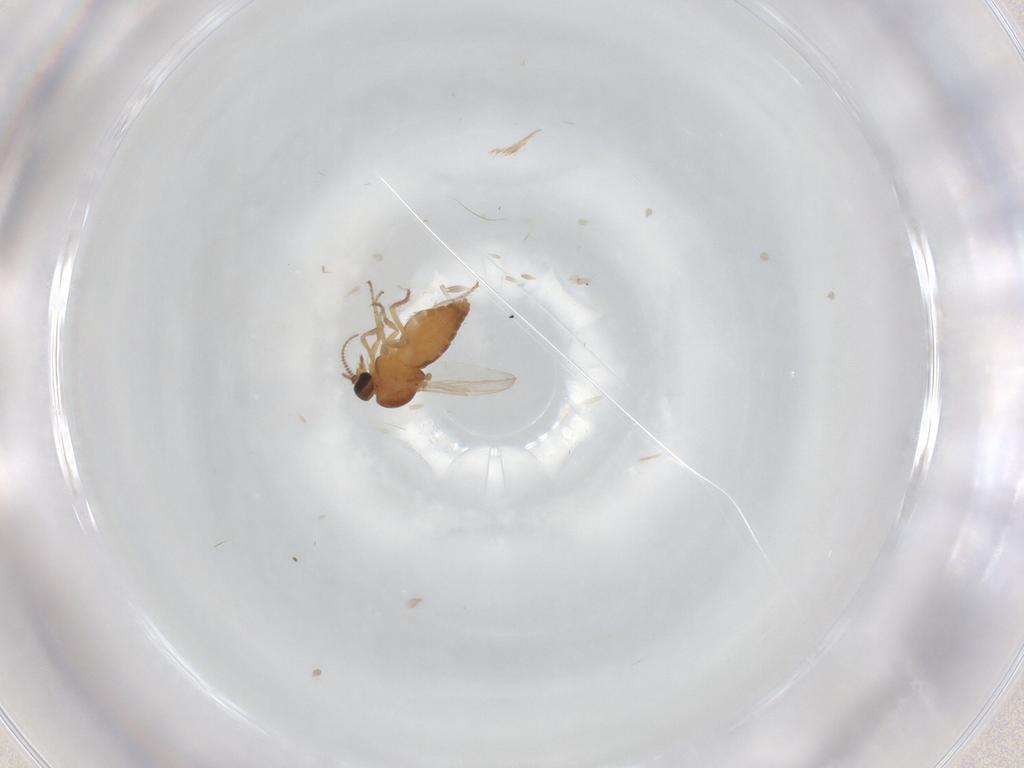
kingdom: Animalia
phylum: Arthropoda
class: Insecta
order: Diptera
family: Ceratopogonidae
